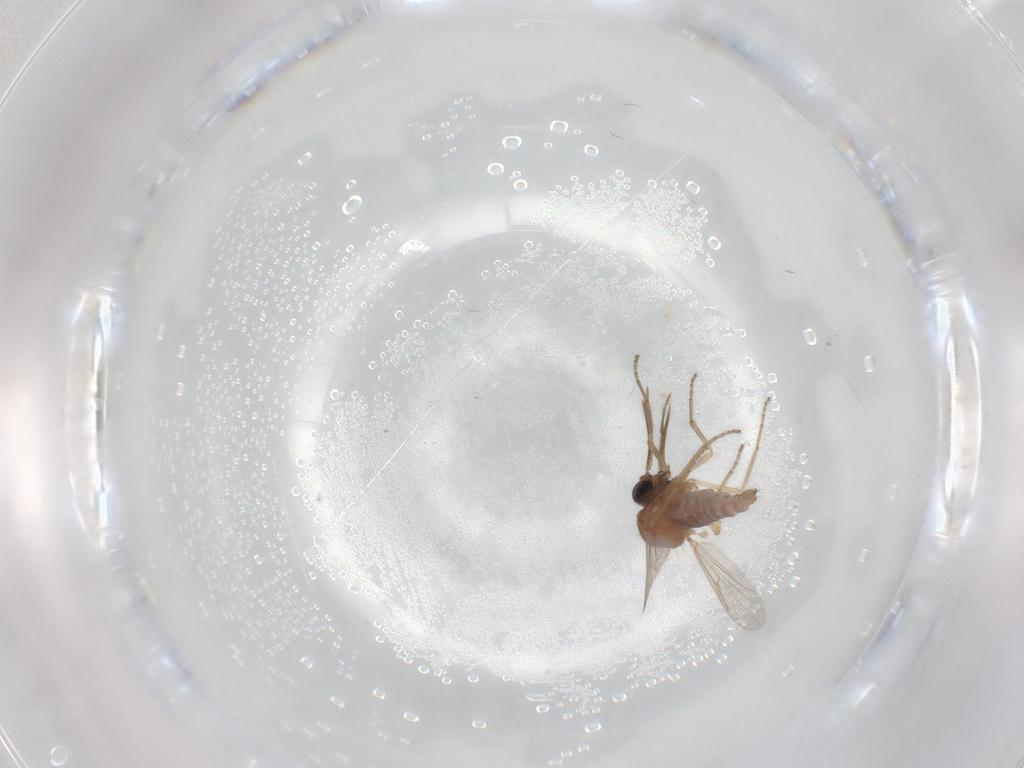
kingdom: Animalia
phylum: Arthropoda
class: Insecta
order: Diptera
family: Ceratopogonidae
